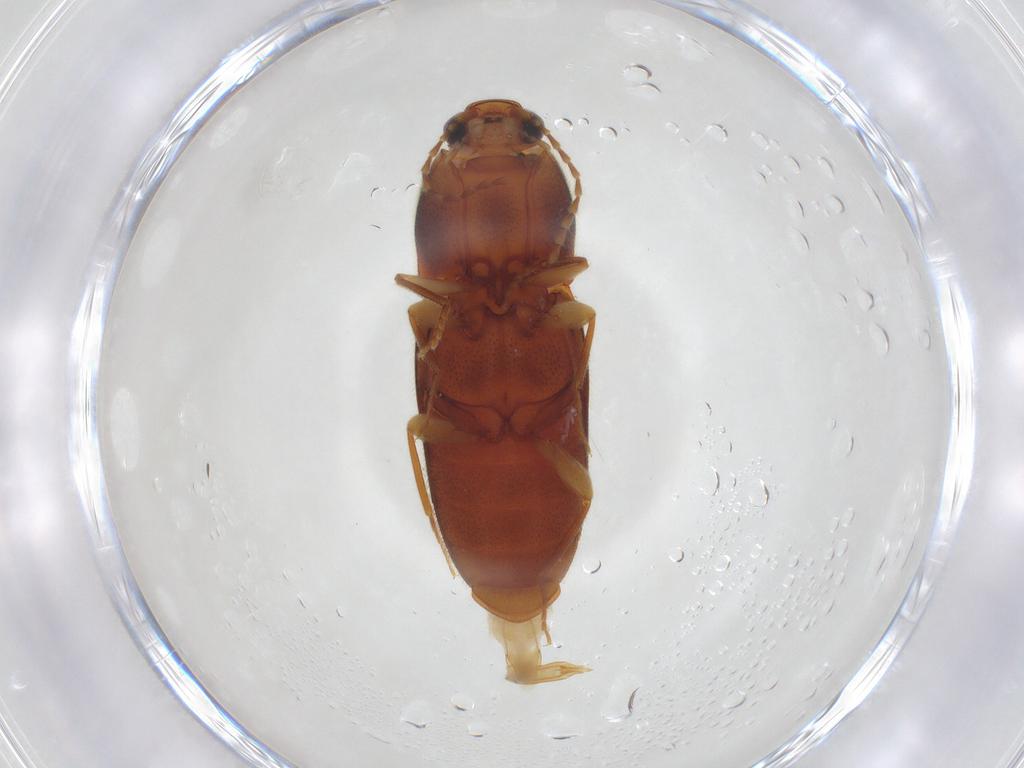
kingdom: Animalia
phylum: Arthropoda
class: Insecta
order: Coleoptera
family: Elateridae
